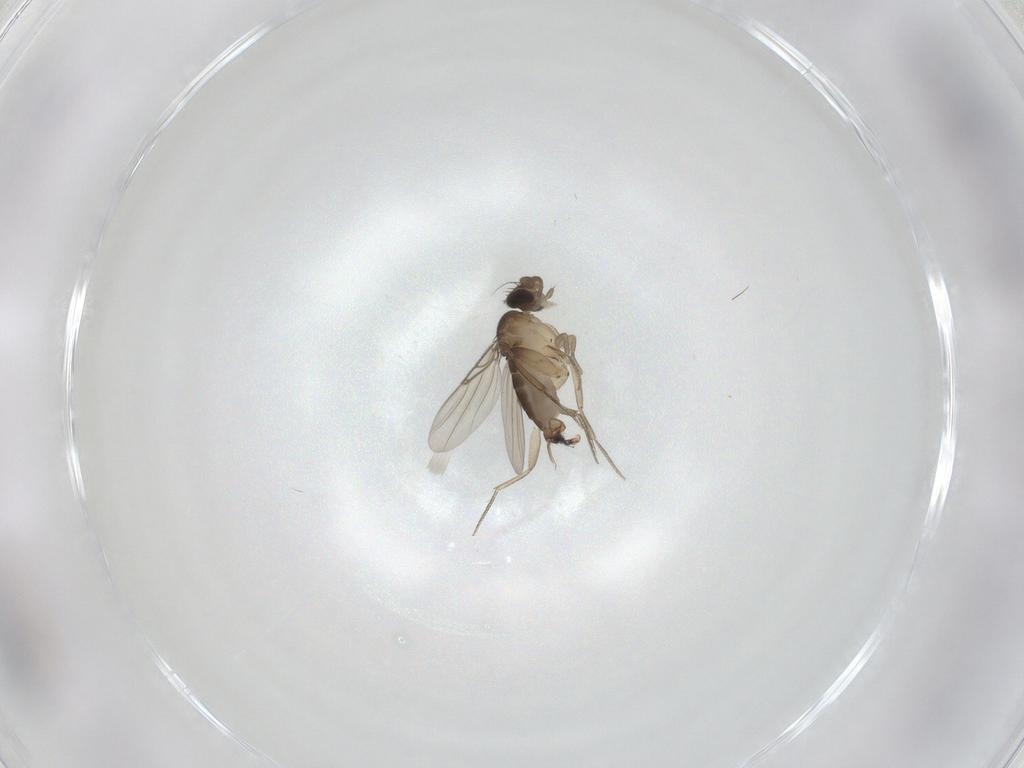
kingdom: Animalia
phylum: Arthropoda
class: Insecta
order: Diptera
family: Phoridae
